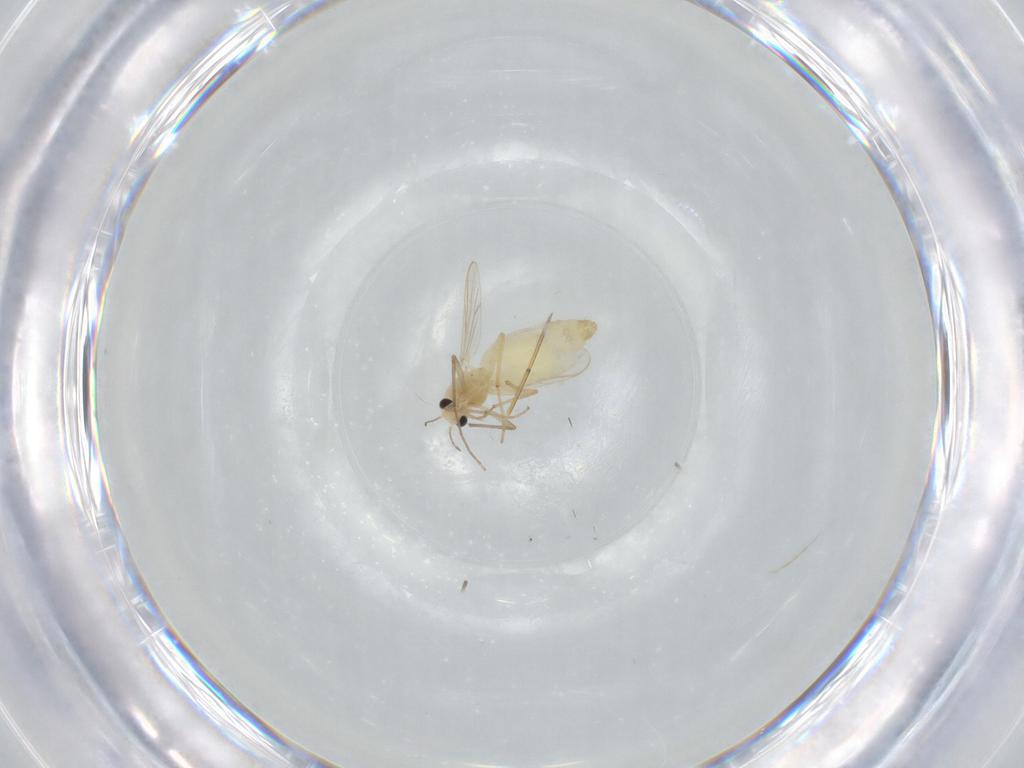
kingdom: Animalia
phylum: Arthropoda
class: Insecta
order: Diptera
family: Chironomidae
